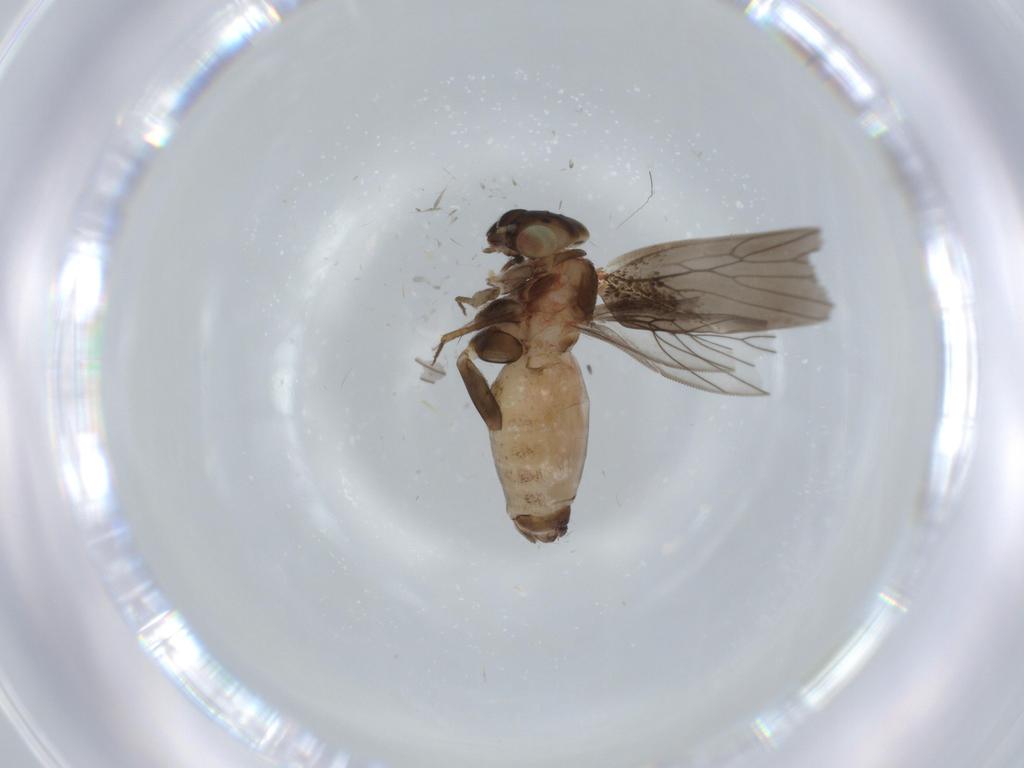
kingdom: Animalia
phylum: Arthropoda
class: Insecta
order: Psocodea
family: Lepidopsocidae
